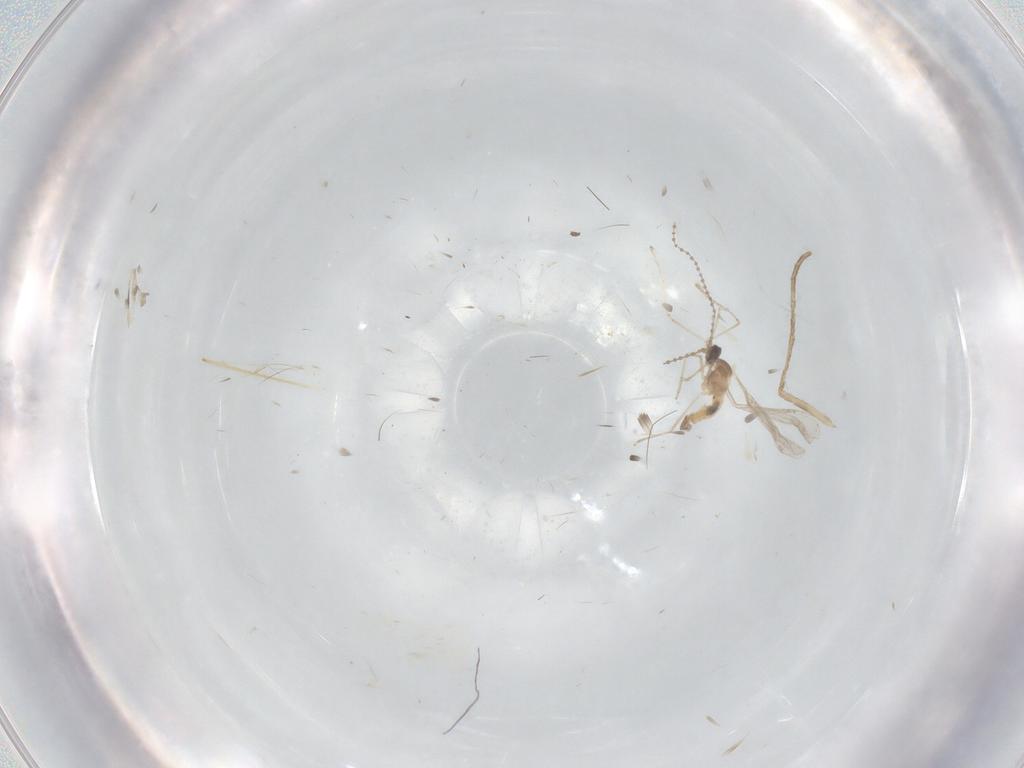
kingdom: Animalia
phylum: Arthropoda
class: Insecta
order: Diptera
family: Cecidomyiidae
